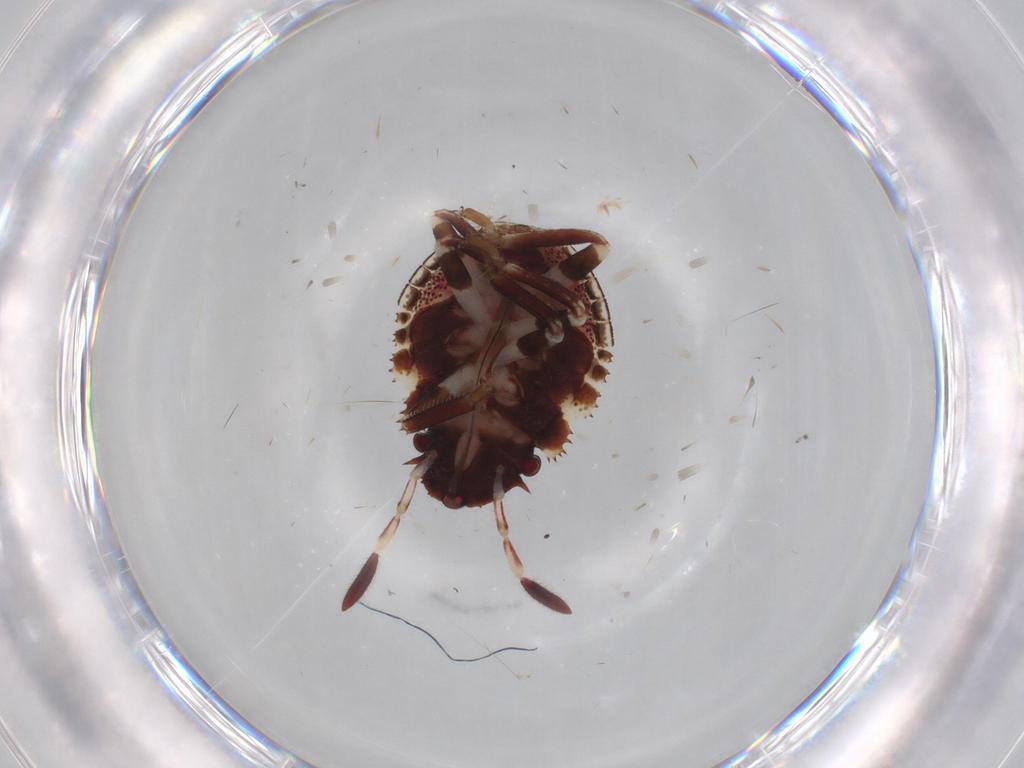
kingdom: Animalia
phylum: Arthropoda
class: Insecta
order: Hemiptera
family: Scutelleridae
